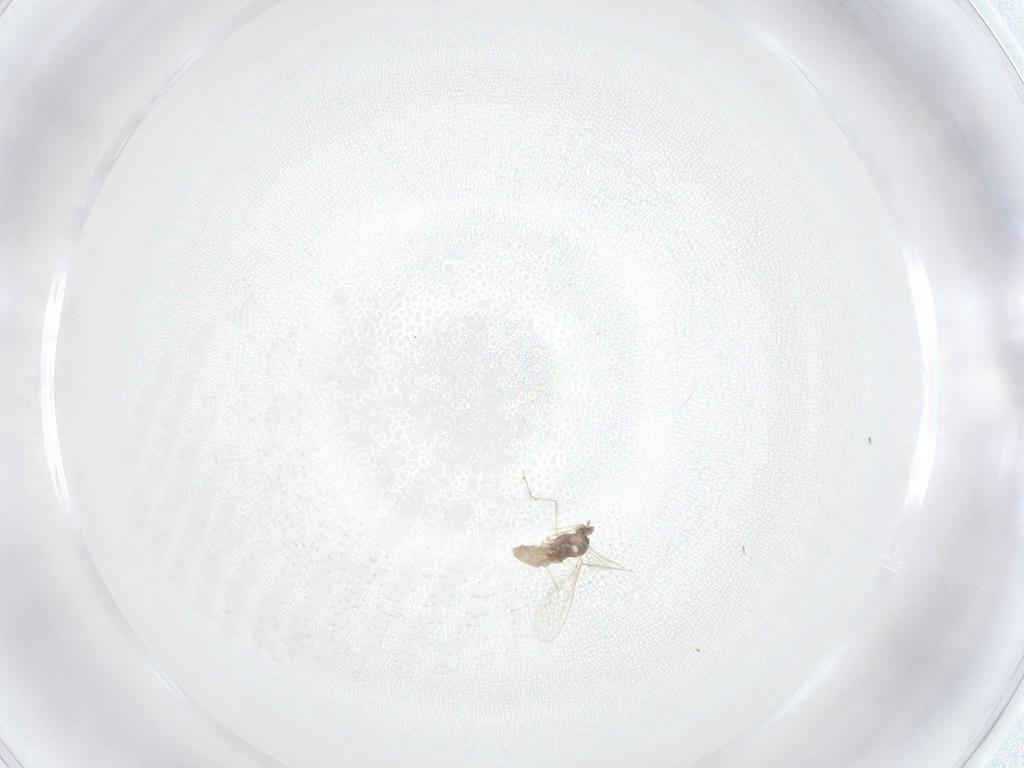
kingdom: Animalia
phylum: Arthropoda
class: Insecta
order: Diptera
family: Cecidomyiidae
